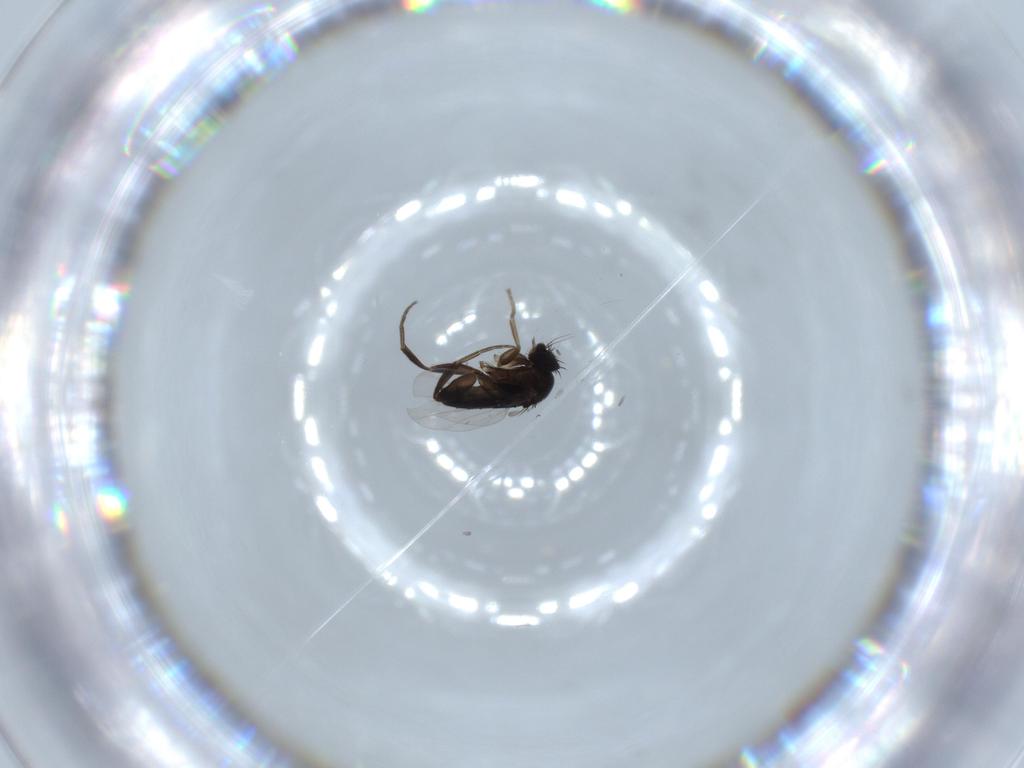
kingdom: Animalia
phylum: Arthropoda
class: Insecta
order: Diptera
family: Phoridae
